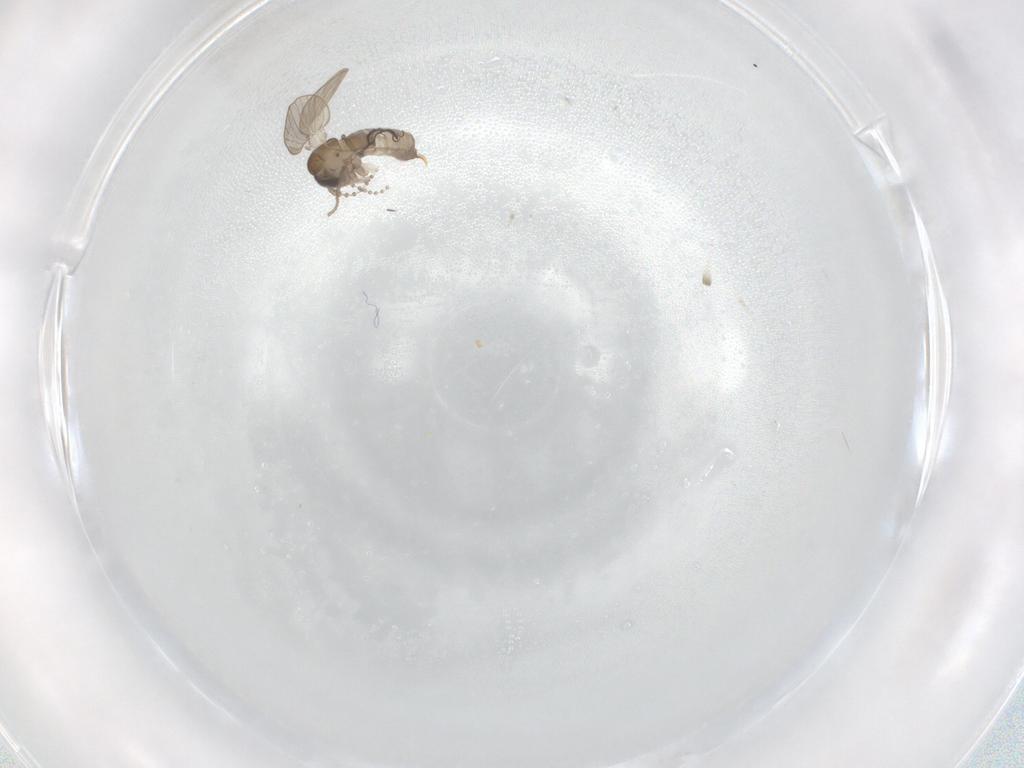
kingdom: Animalia
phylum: Arthropoda
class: Insecta
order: Diptera
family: Psychodidae
